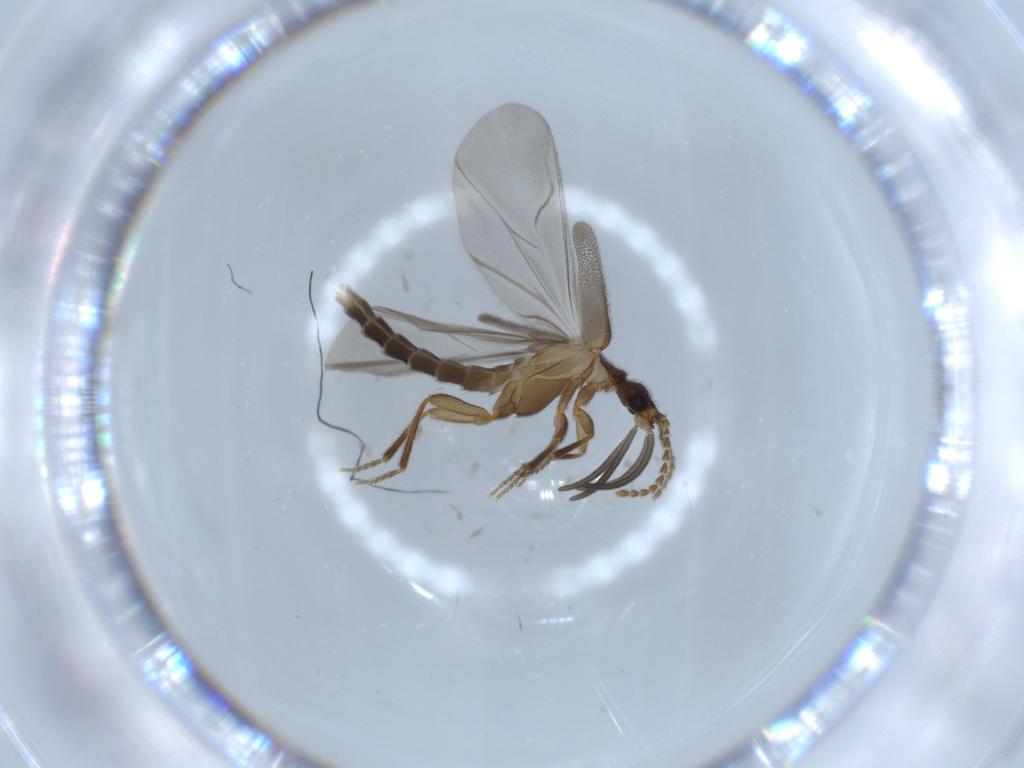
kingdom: Animalia
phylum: Arthropoda
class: Insecta
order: Coleoptera
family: Omethidae
